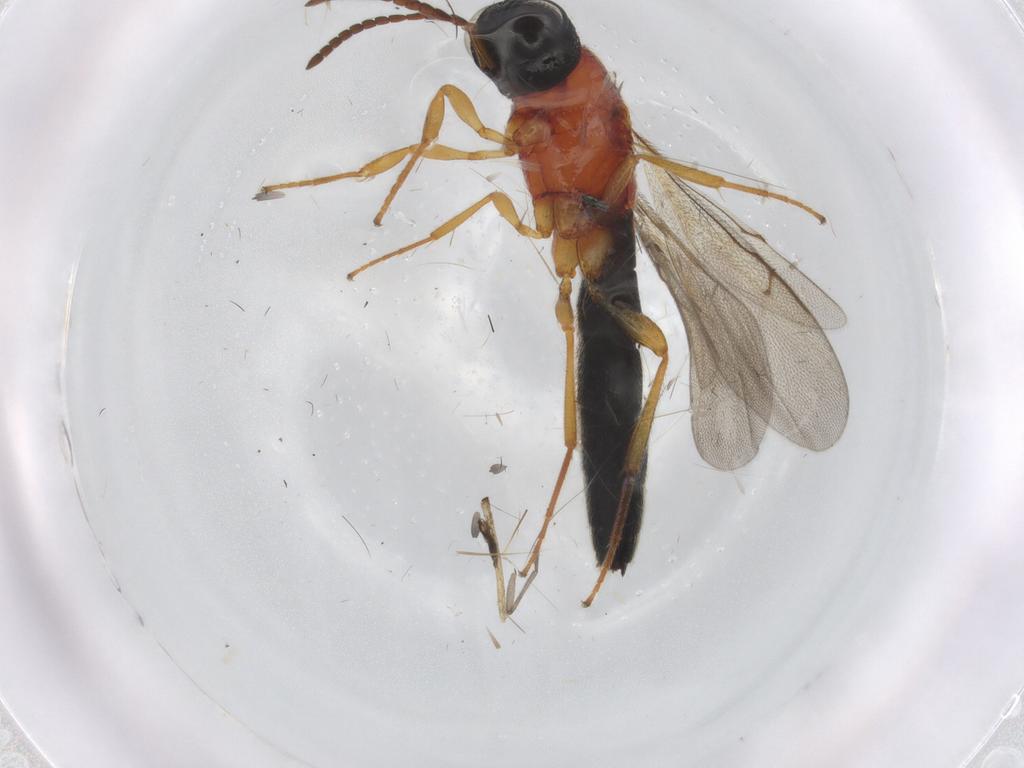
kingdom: Animalia
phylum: Arthropoda
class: Insecta
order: Hymenoptera
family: Scelionidae
